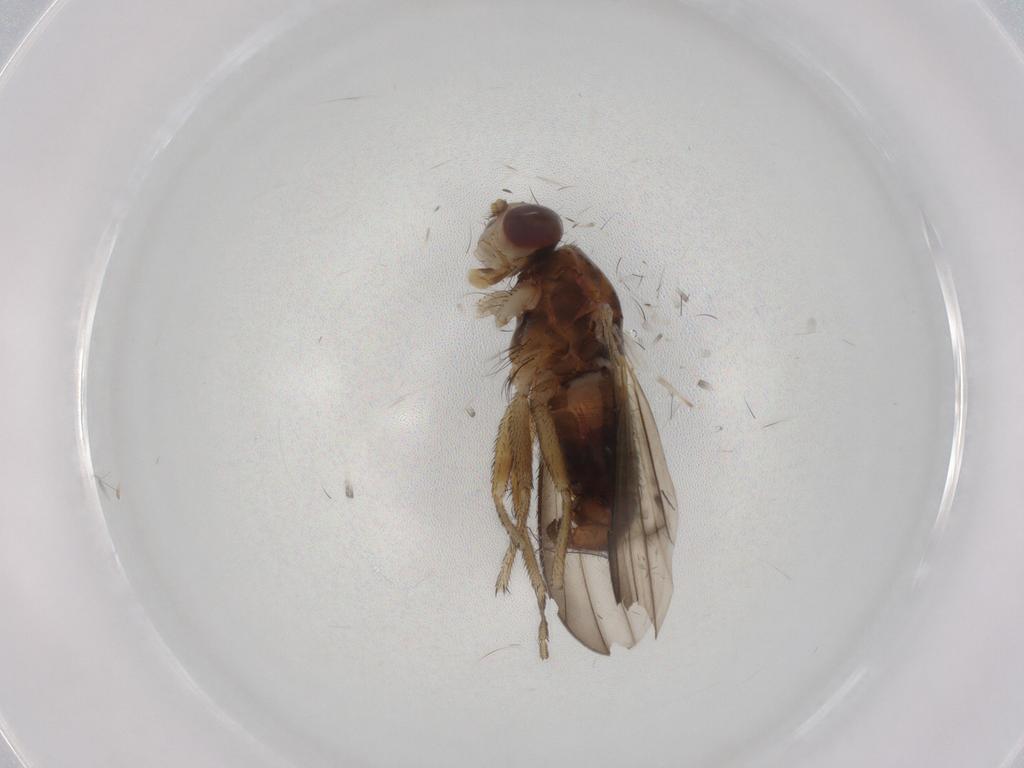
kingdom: Animalia
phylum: Arthropoda
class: Insecta
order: Diptera
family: Heleomyzidae
